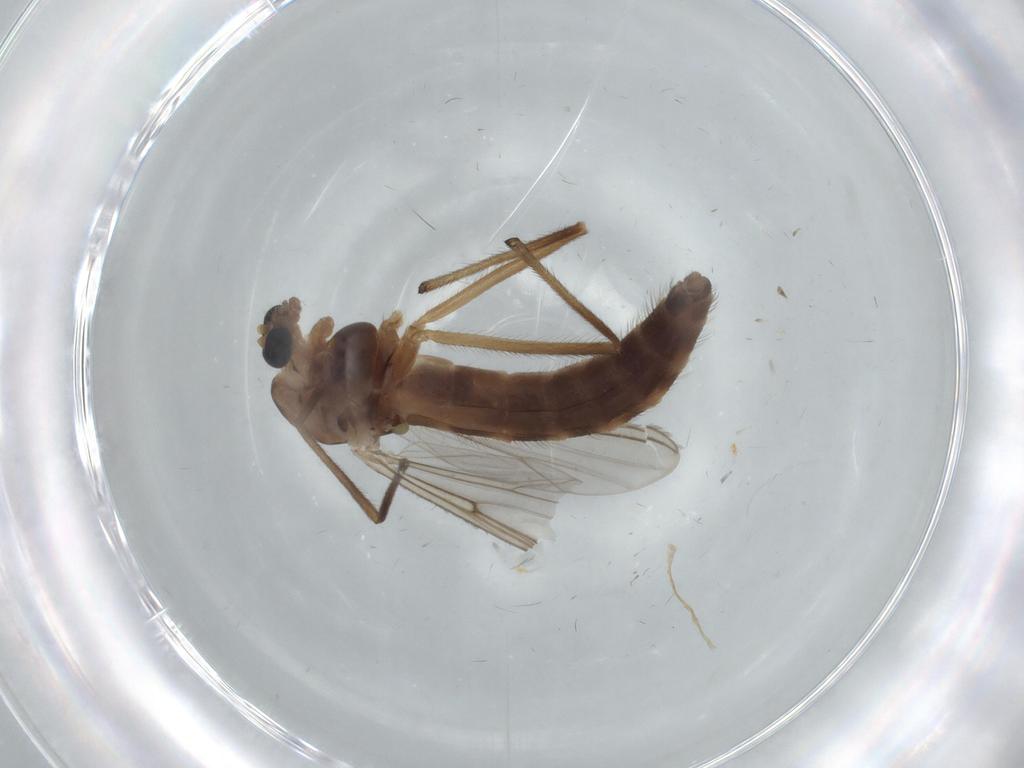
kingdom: Animalia
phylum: Arthropoda
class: Insecta
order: Diptera
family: Chironomidae
